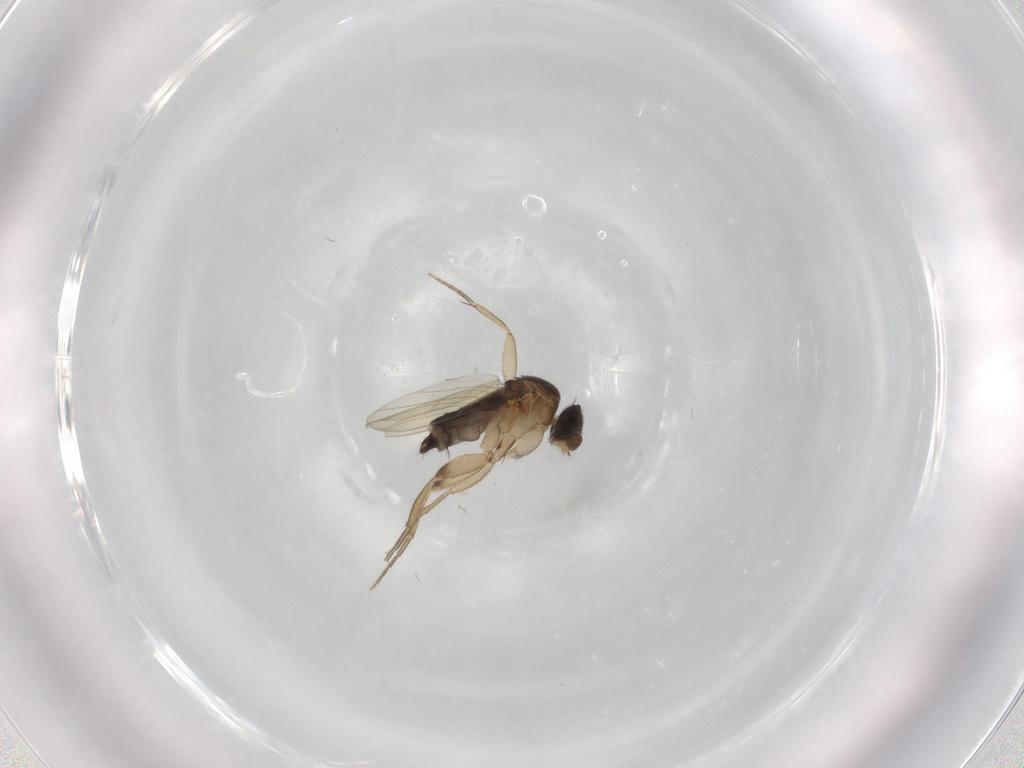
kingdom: Animalia
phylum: Arthropoda
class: Insecta
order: Diptera
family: Phoridae
